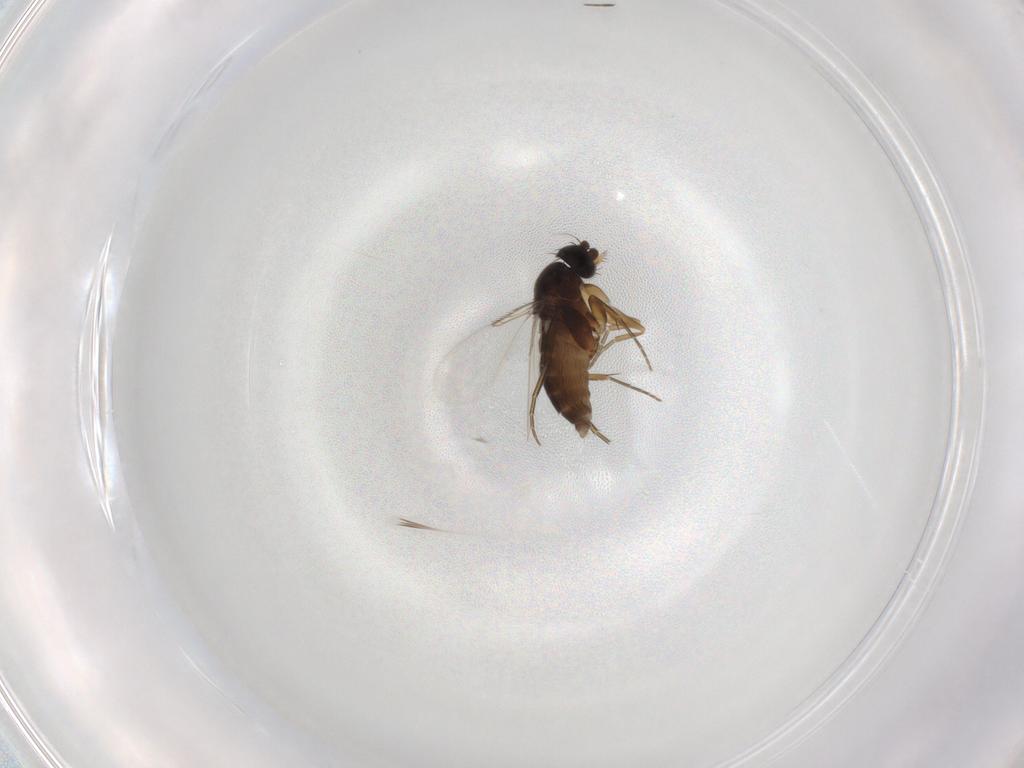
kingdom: Animalia
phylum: Arthropoda
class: Insecta
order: Diptera
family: Phoridae
